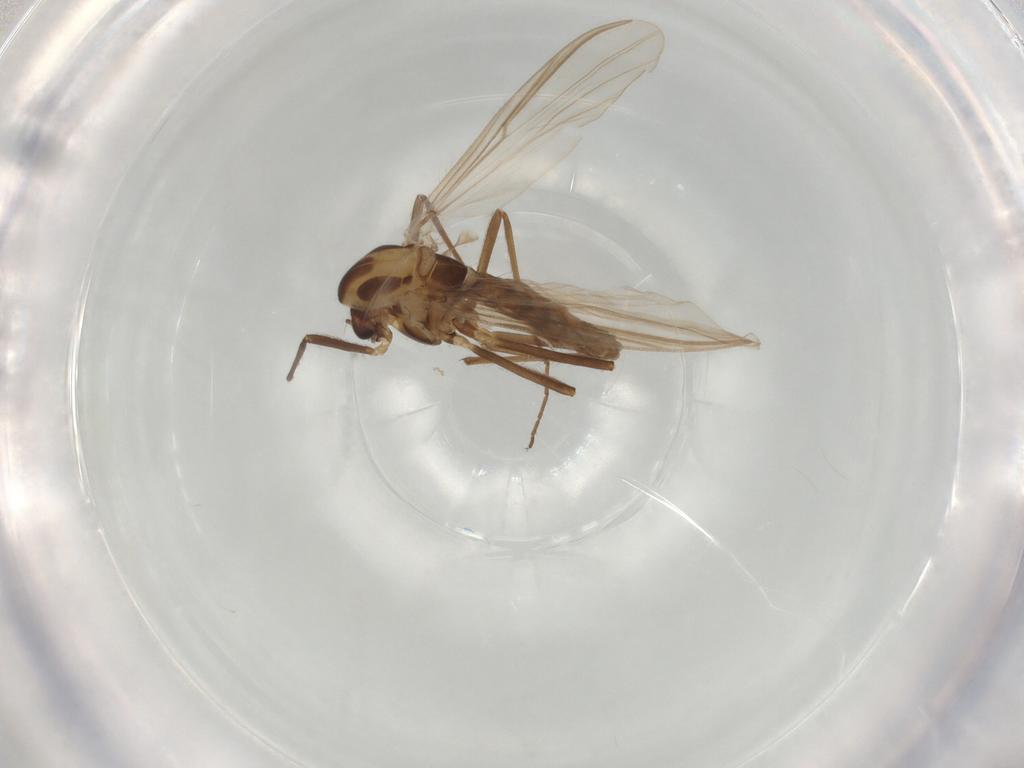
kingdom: Animalia
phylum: Arthropoda
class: Insecta
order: Diptera
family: Chironomidae
